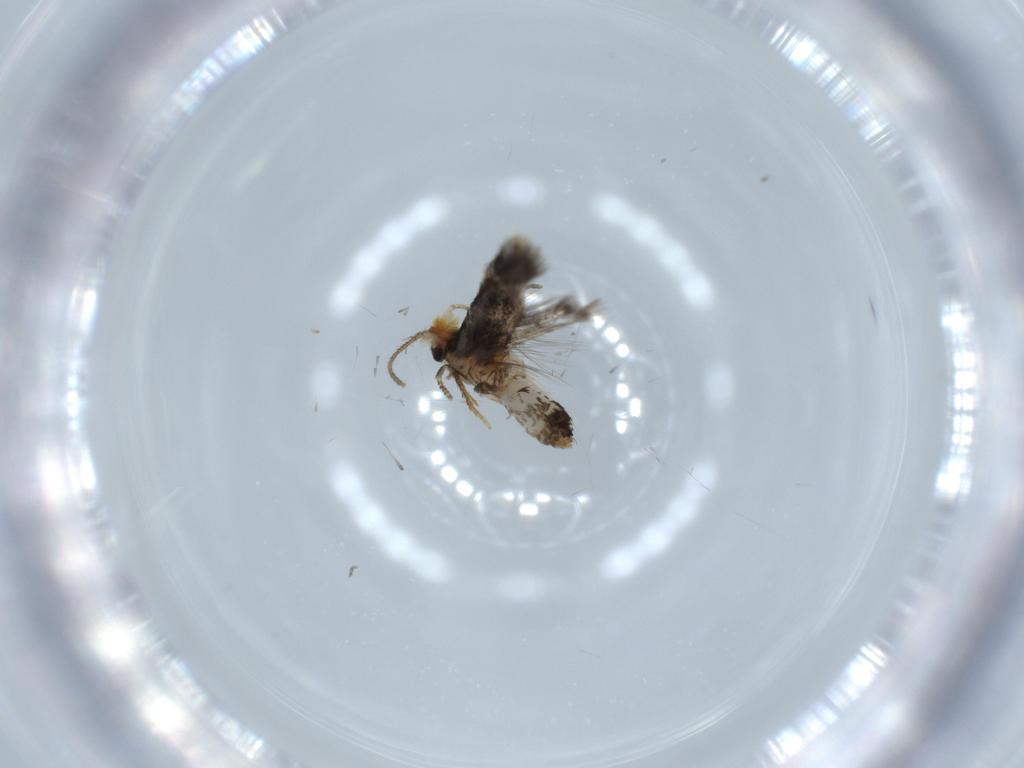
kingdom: Animalia
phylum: Arthropoda
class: Insecta
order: Lepidoptera
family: Nepticulidae
